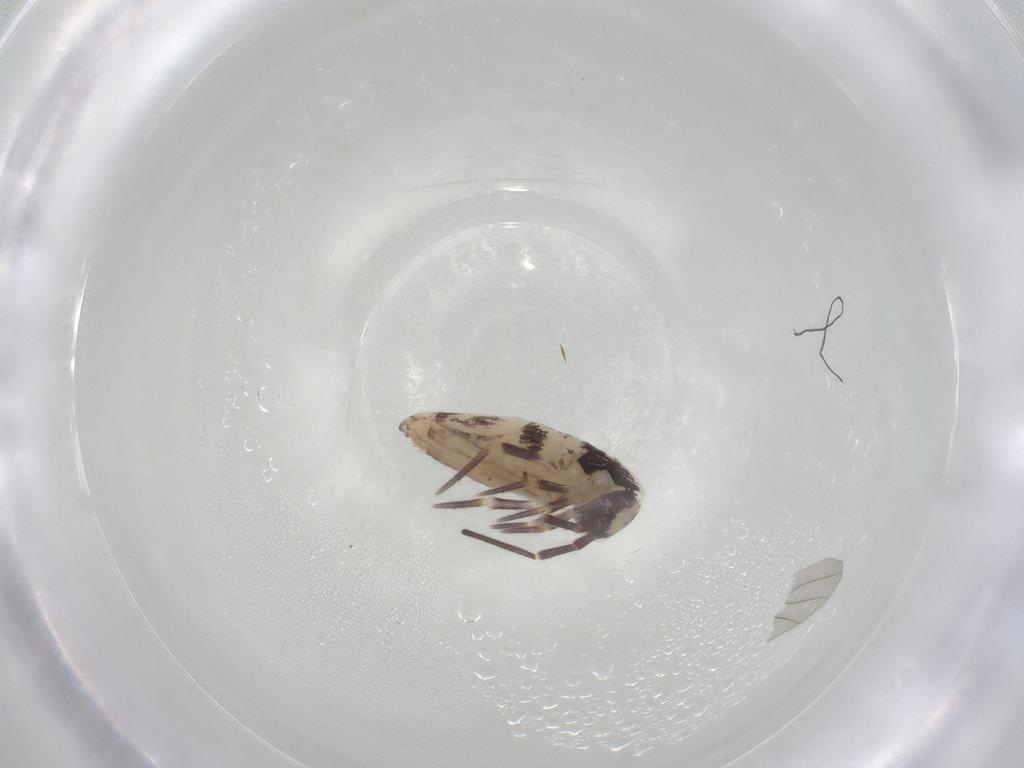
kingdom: Animalia
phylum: Arthropoda
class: Collembola
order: Entomobryomorpha
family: Entomobryidae
